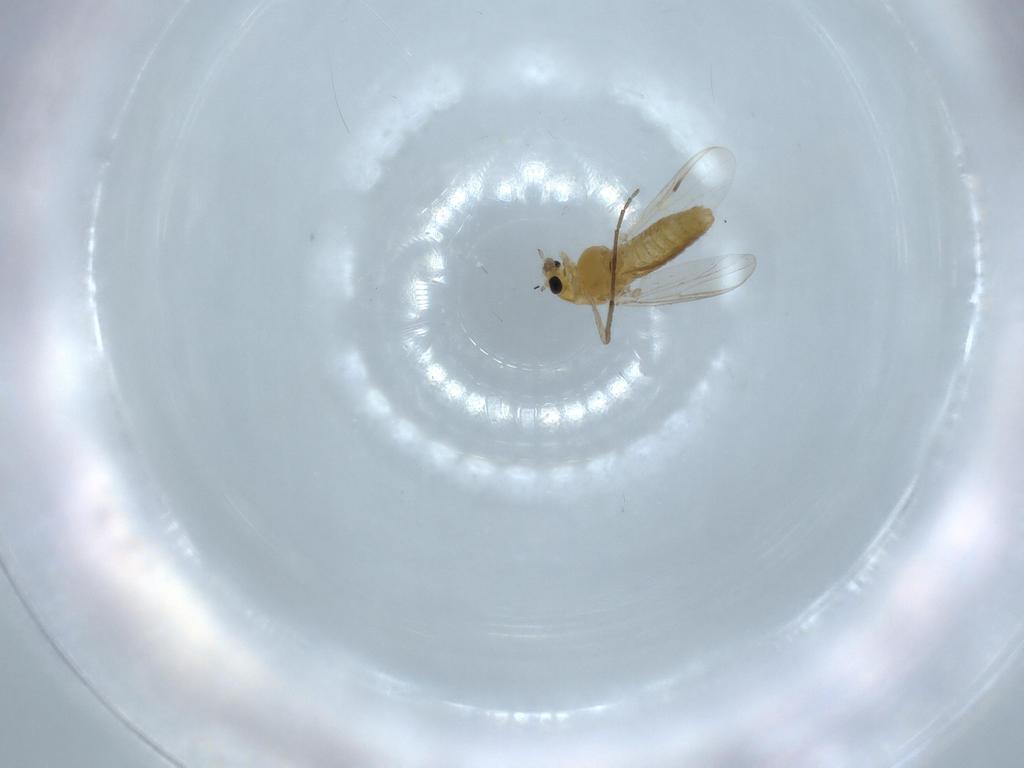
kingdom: Animalia
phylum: Arthropoda
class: Insecta
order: Diptera
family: Chironomidae
